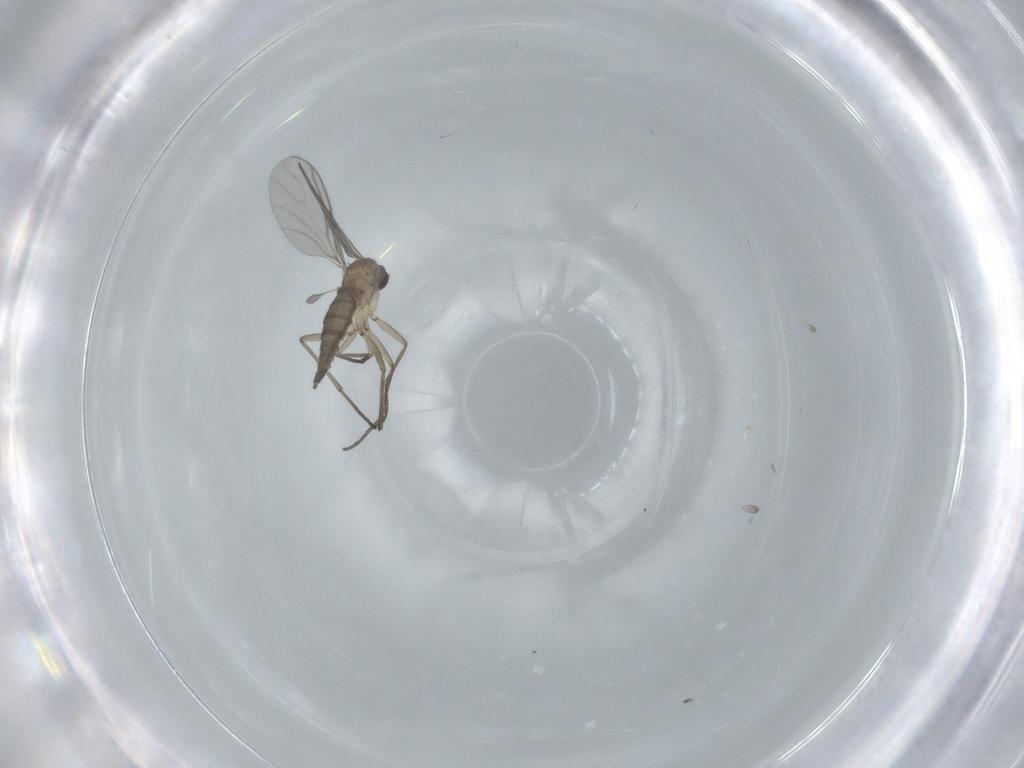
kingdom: Animalia
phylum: Arthropoda
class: Insecta
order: Diptera
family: Sciaridae
